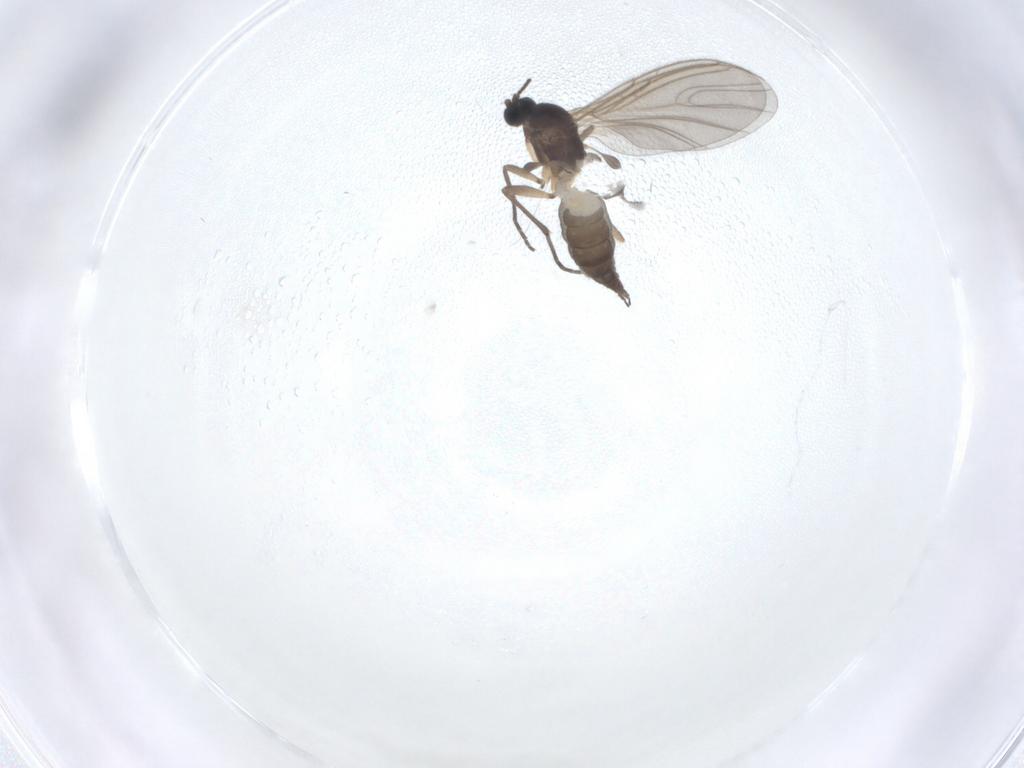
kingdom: Animalia
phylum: Arthropoda
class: Insecta
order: Diptera
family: Sciaridae
